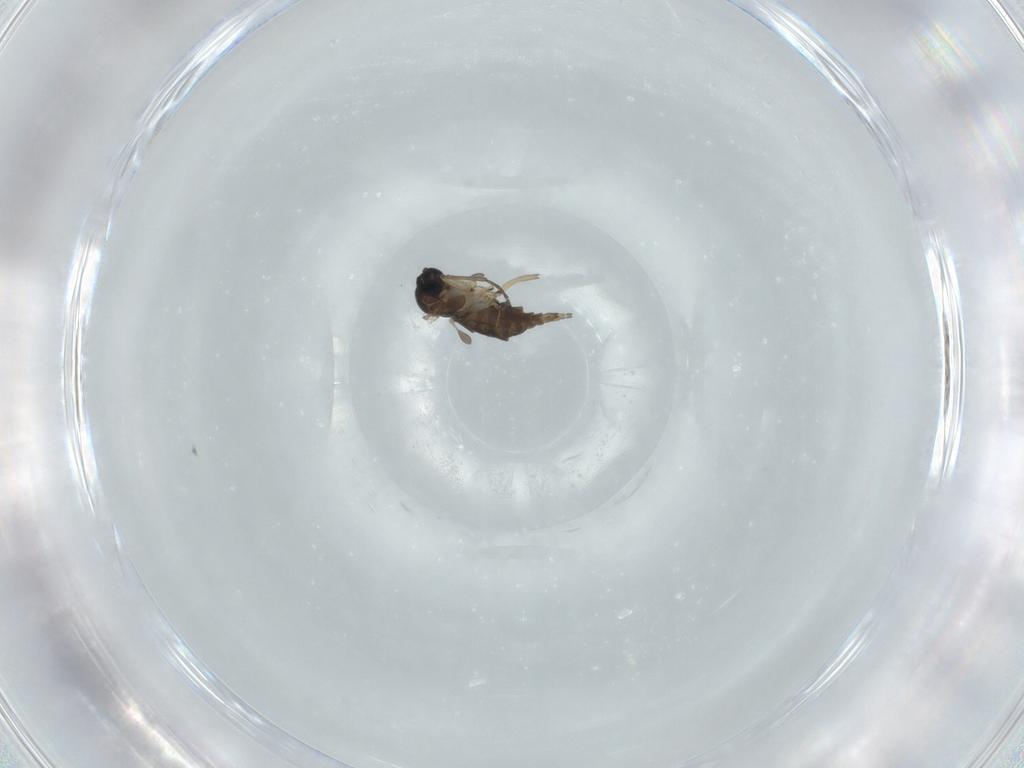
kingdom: Animalia
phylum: Arthropoda
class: Insecta
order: Diptera
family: Sciaridae
